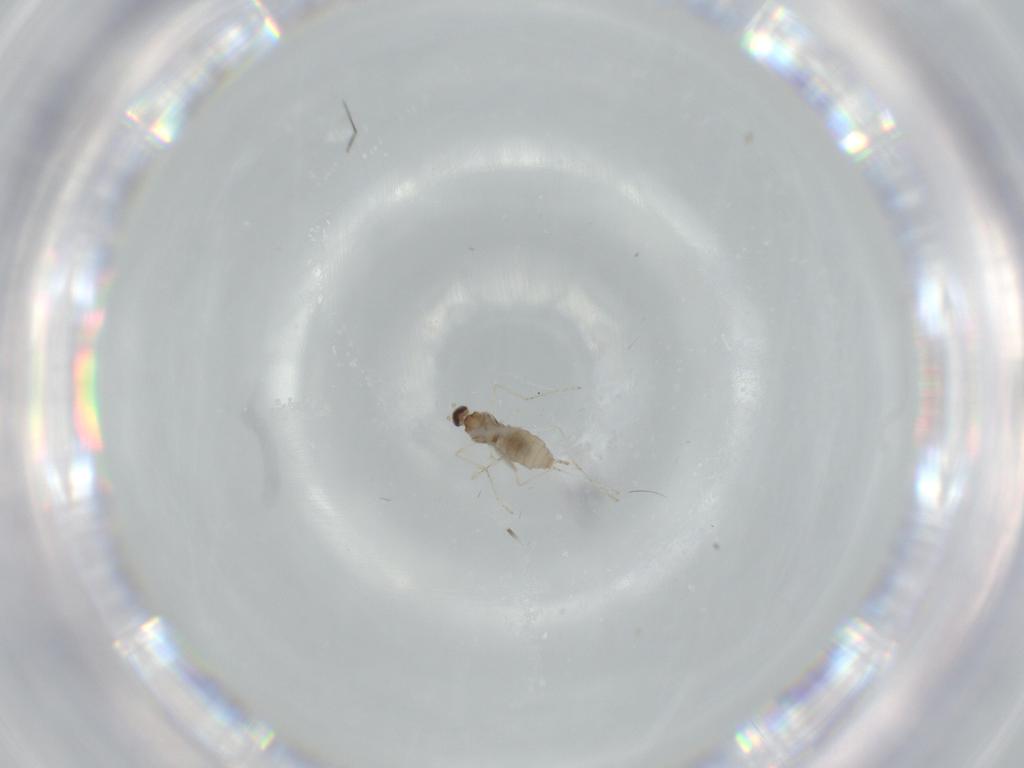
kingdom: Animalia
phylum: Arthropoda
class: Insecta
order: Diptera
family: Cecidomyiidae
